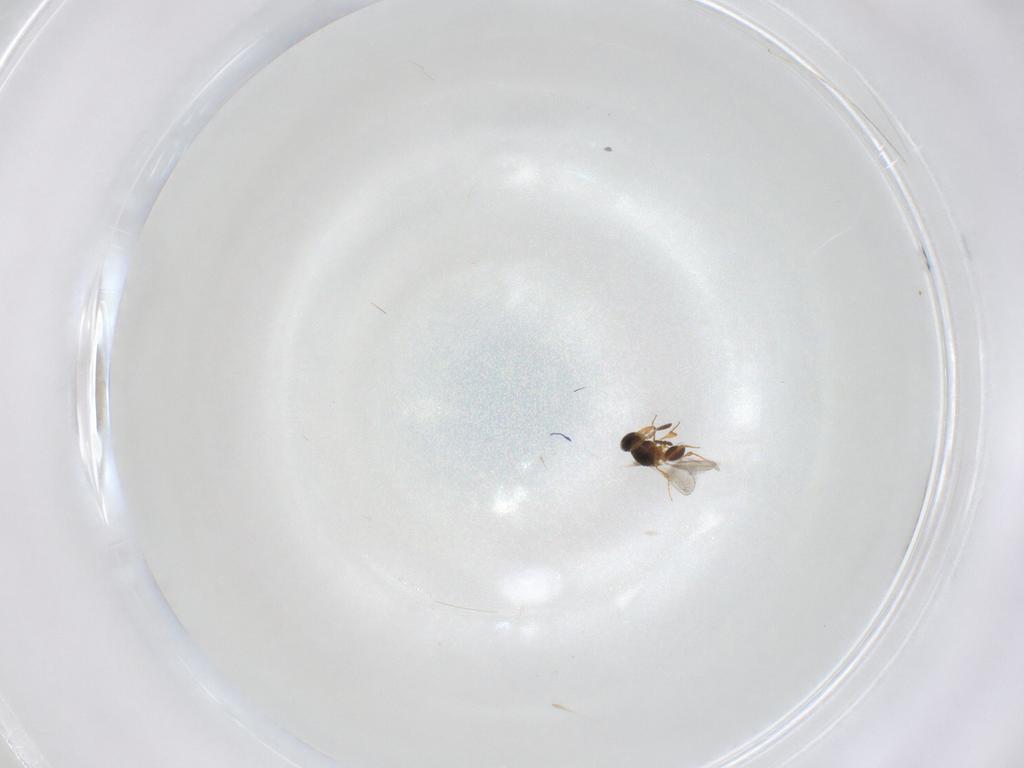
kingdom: Animalia
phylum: Arthropoda
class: Insecta
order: Hymenoptera
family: Dryinidae
